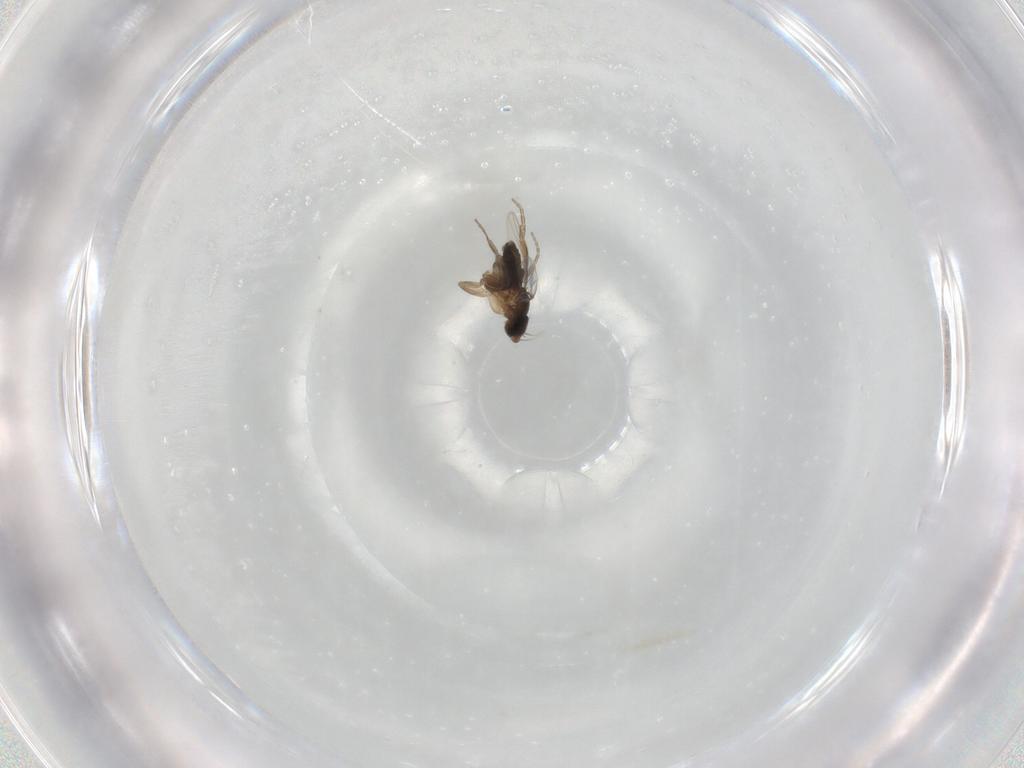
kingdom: Animalia
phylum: Arthropoda
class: Insecta
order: Diptera
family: Phoridae
